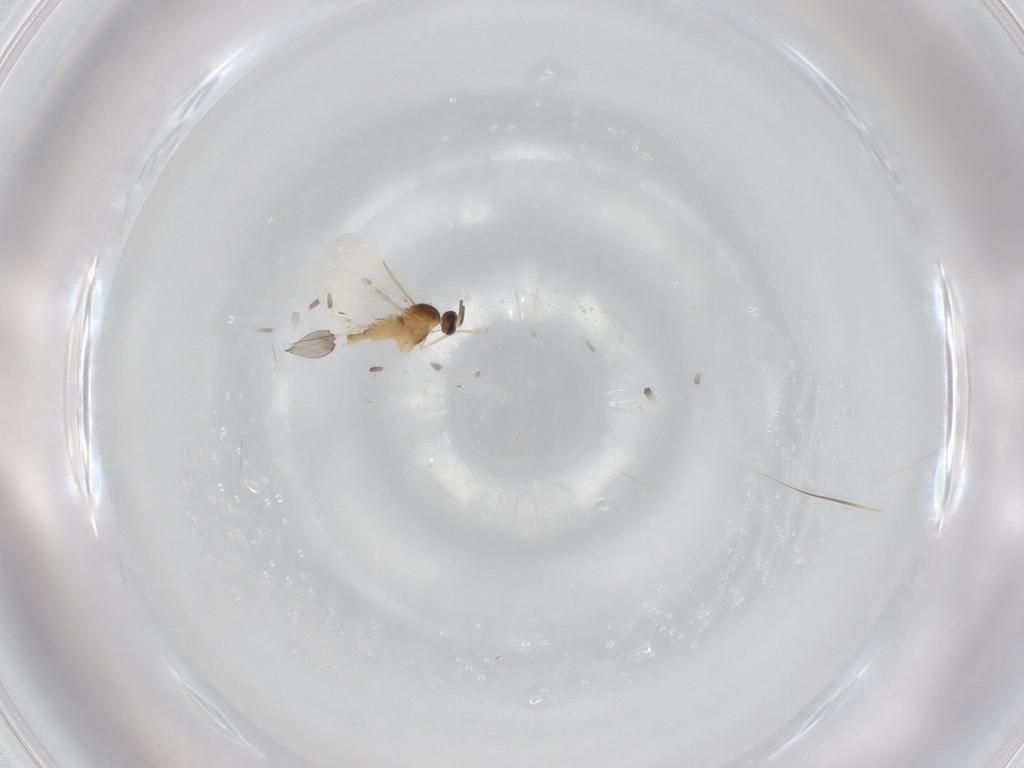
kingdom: Animalia
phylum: Arthropoda
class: Insecta
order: Diptera
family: Cecidomyiidae
